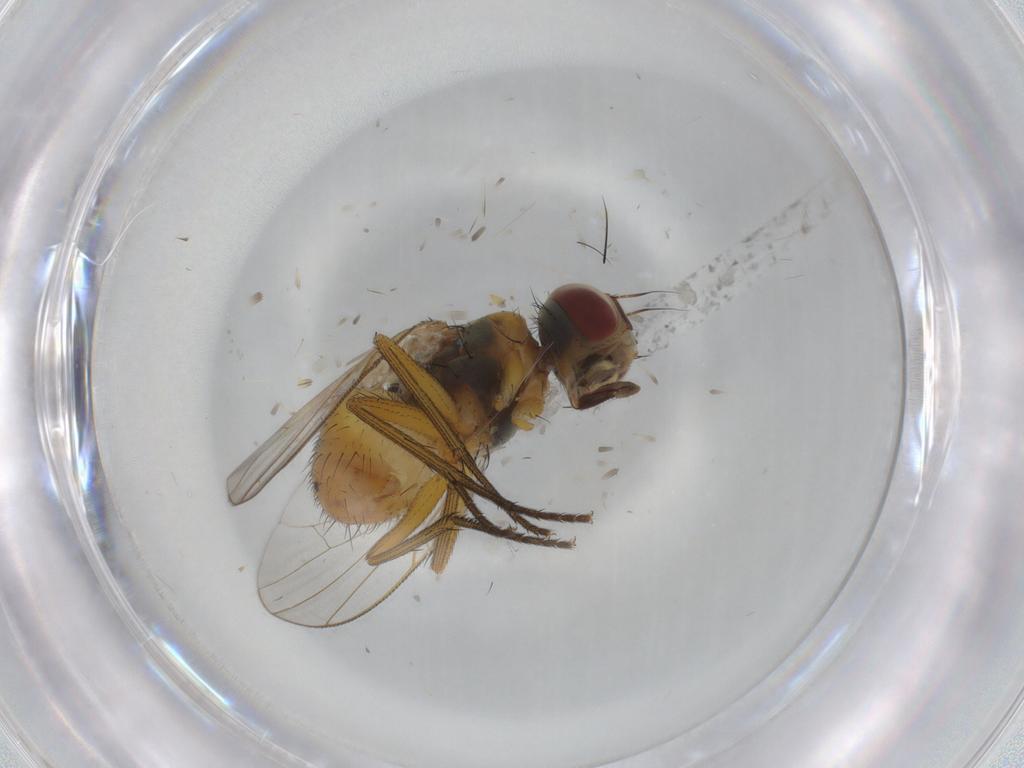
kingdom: Animalia
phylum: Arthropoda
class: Insecta
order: Diptera
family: Muscidae
